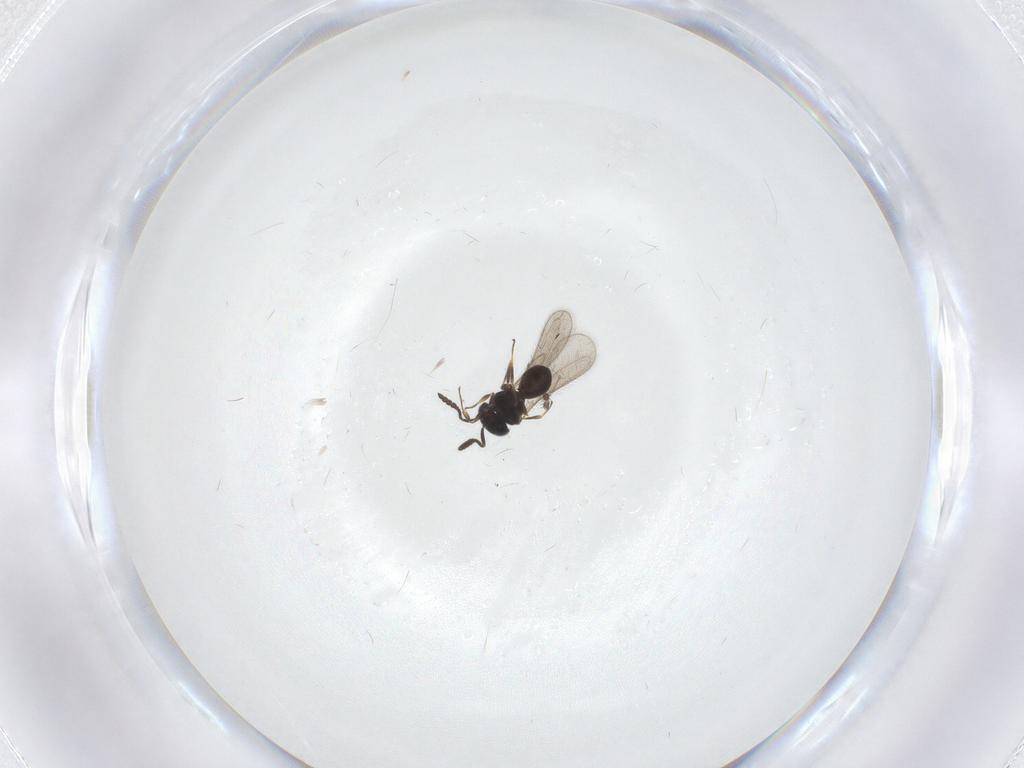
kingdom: Animalia
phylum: Arthropoda
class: Insecta
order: Hymenoptera
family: Scelionidae
